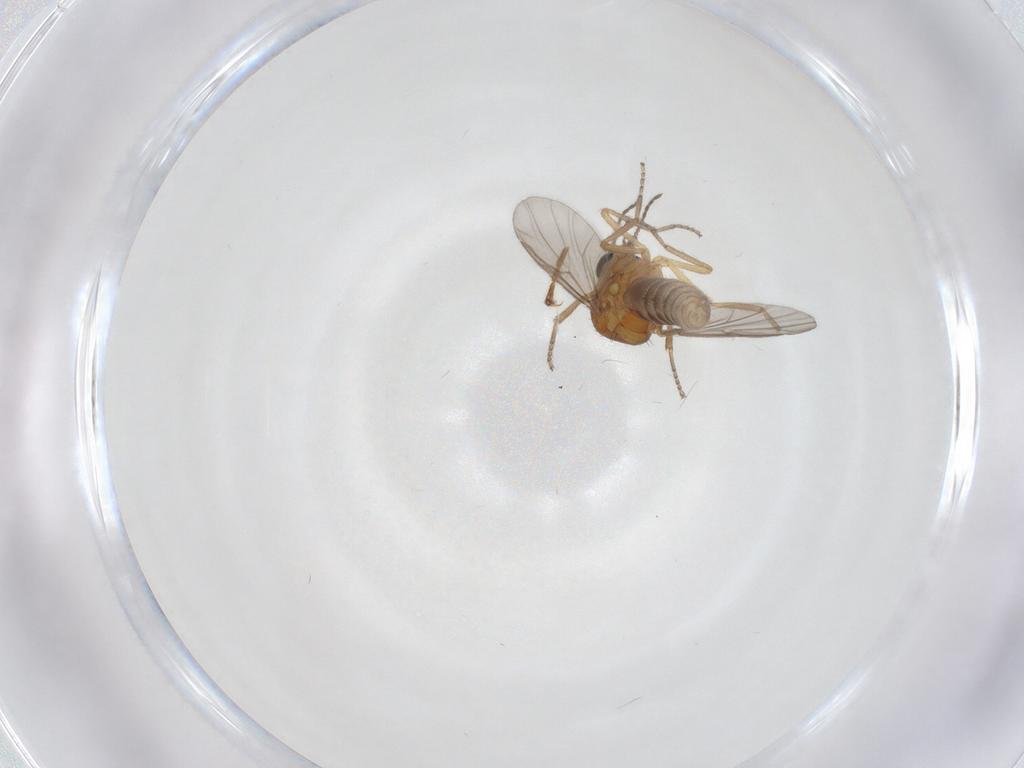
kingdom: Animalia
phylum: Arthropoda
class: Insecta
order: Diptera
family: Ceratopogonidae
